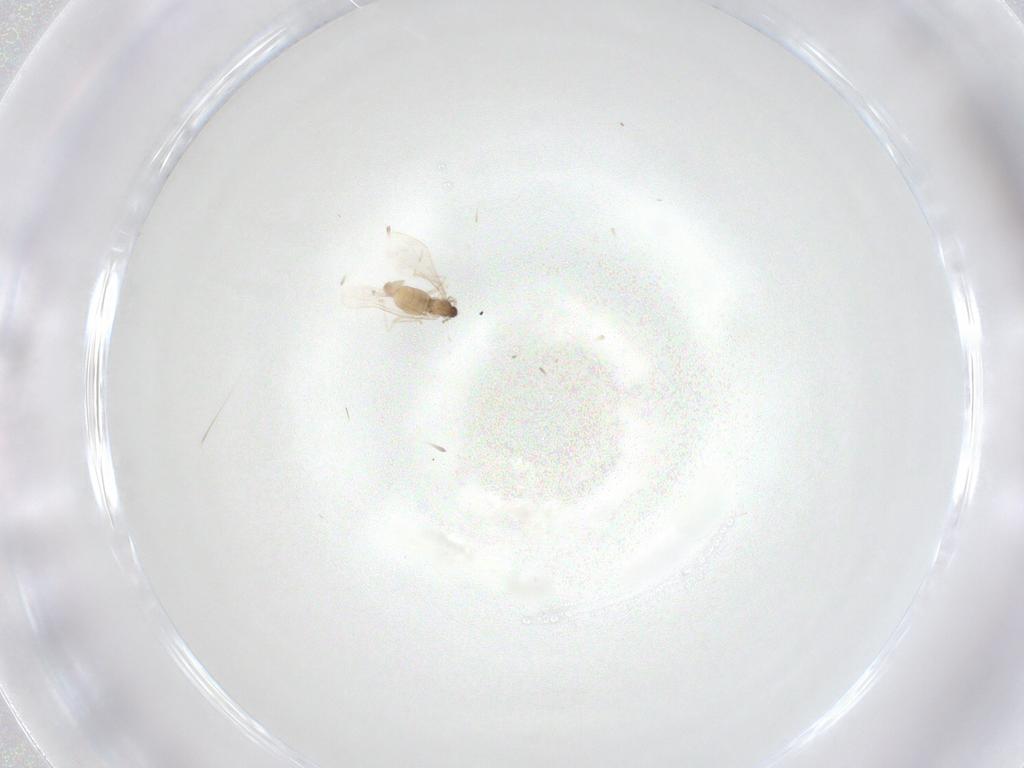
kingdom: Animalia
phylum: Arthropoda
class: Insecta
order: Diptera
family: Cecidomyiidae
